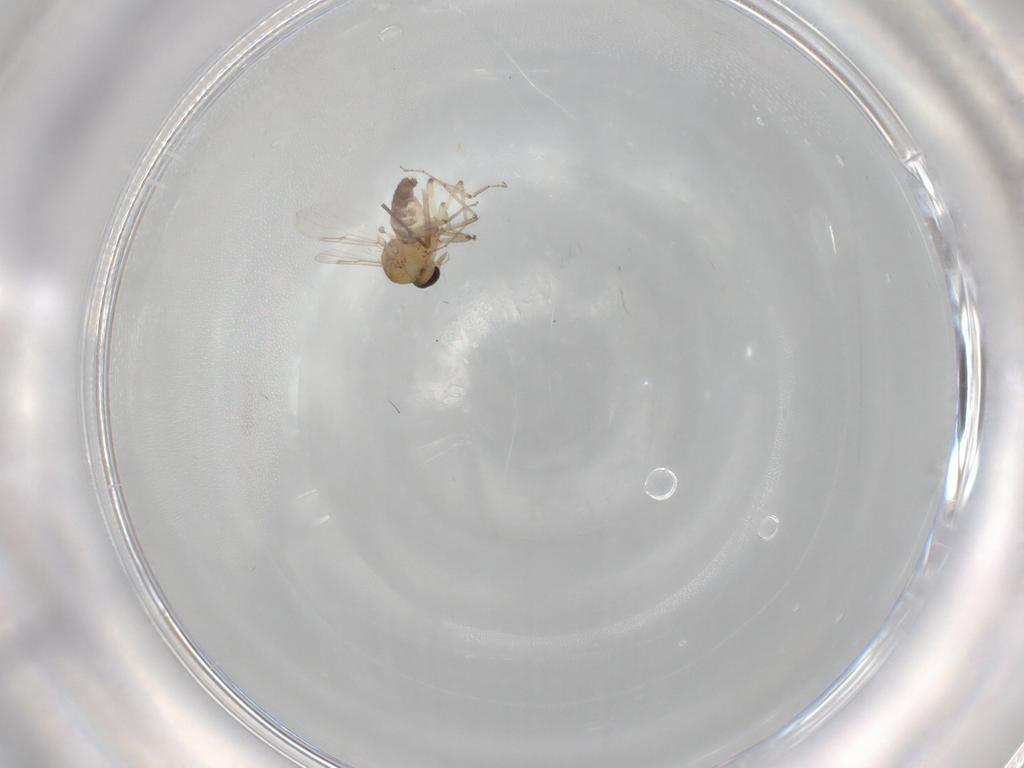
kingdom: Animalia
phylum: Arthropoda
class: Insecta
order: Diptera
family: Ceratopogonidae
